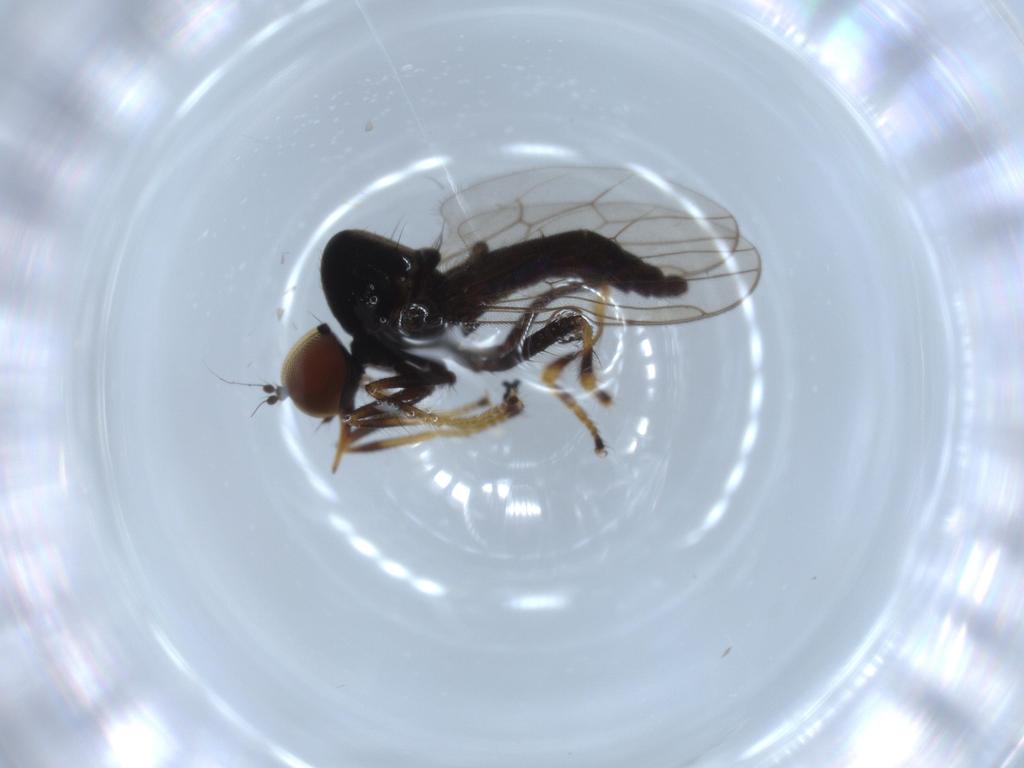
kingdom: Animalia
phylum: Arthropoda
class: Insecta
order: Diptera
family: Hybotidae
